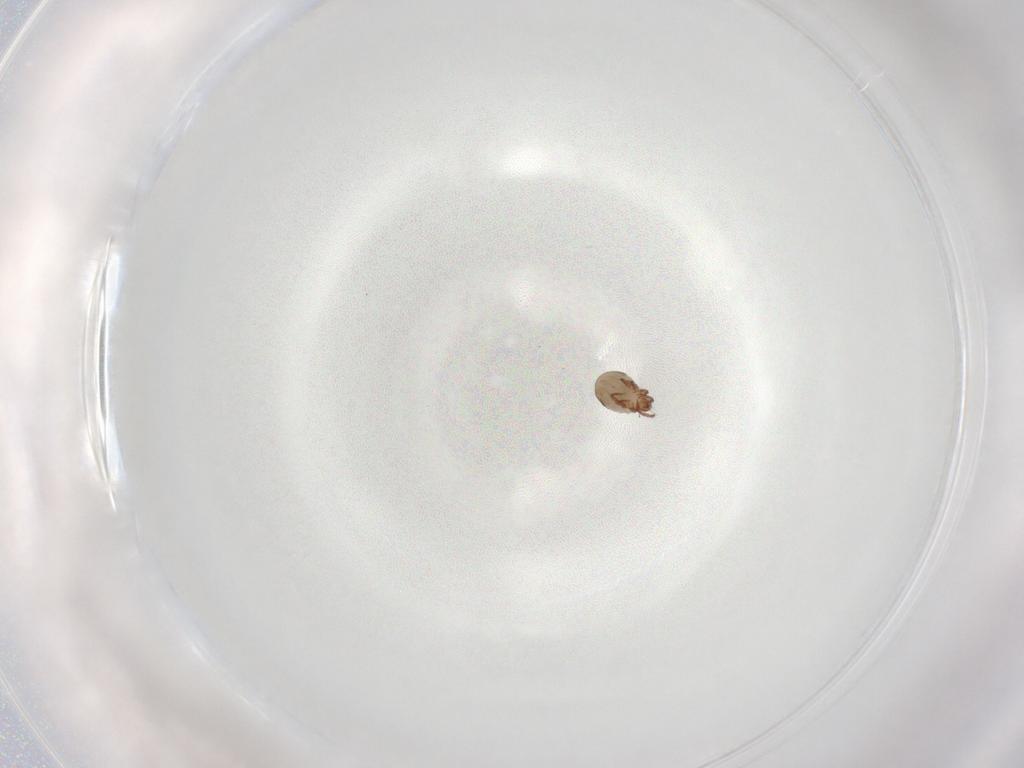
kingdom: Animalia
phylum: Arthropoda
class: Arachnida
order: Sarcoptiformes
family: Ceratozetidae
